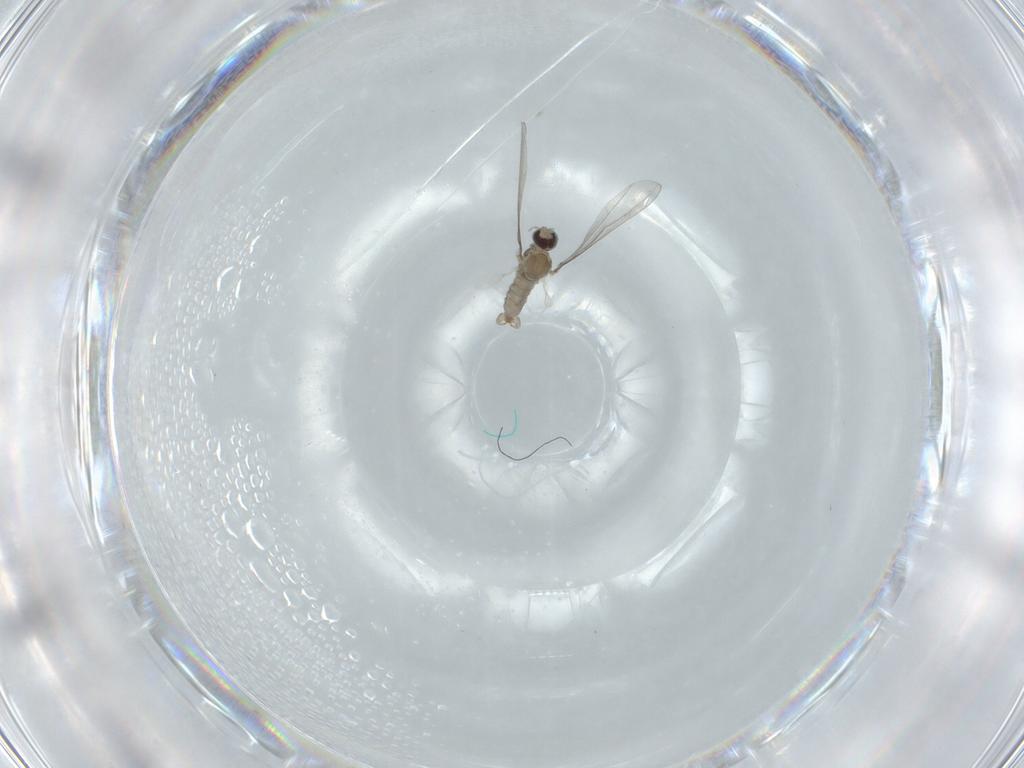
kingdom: Animalia
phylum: Arthropoda
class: Insecta
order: Diptera
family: Cecidomyiidae
